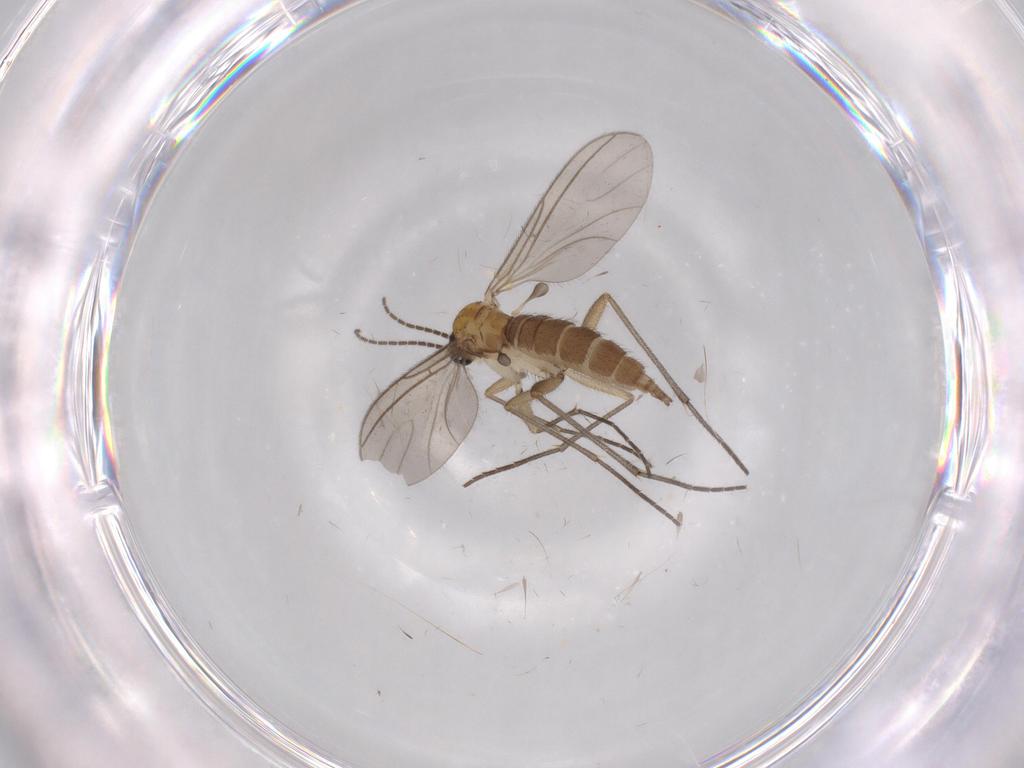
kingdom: Animalia
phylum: Arthropoda
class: Insecta
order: Diptera
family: Sciaridae
